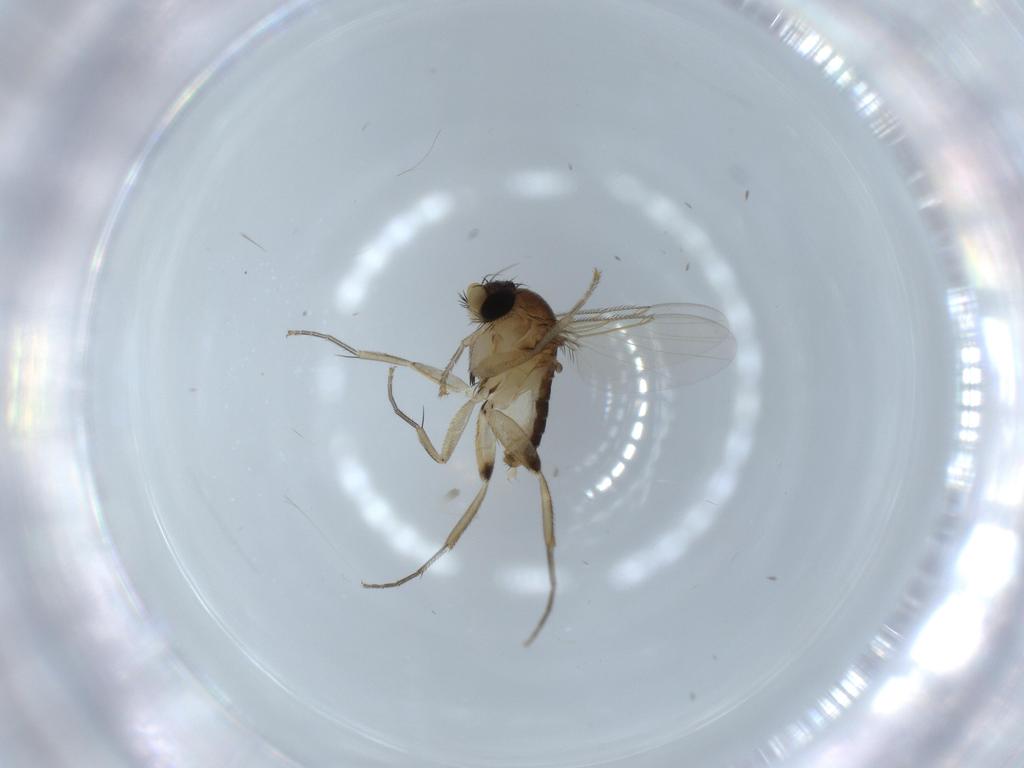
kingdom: Animalia
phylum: Arthropoda
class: Insecta
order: Diptera
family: Phoridae
